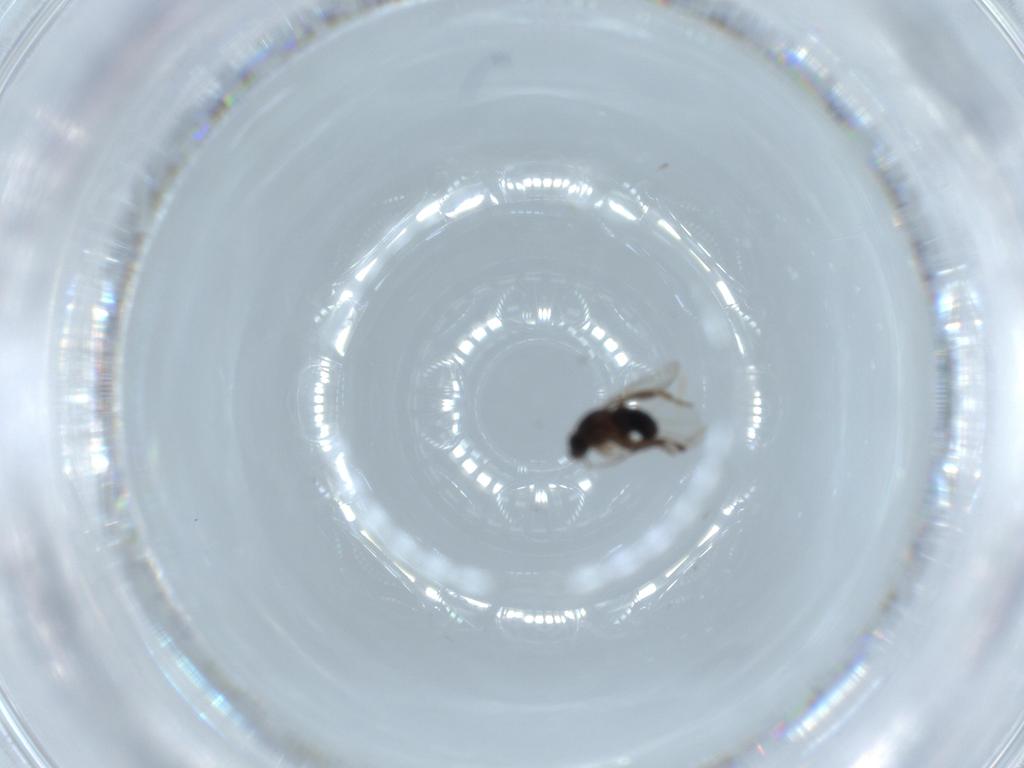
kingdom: Animalia
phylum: Arthropoda
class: Insecta
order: Diptera
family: Phoridae
